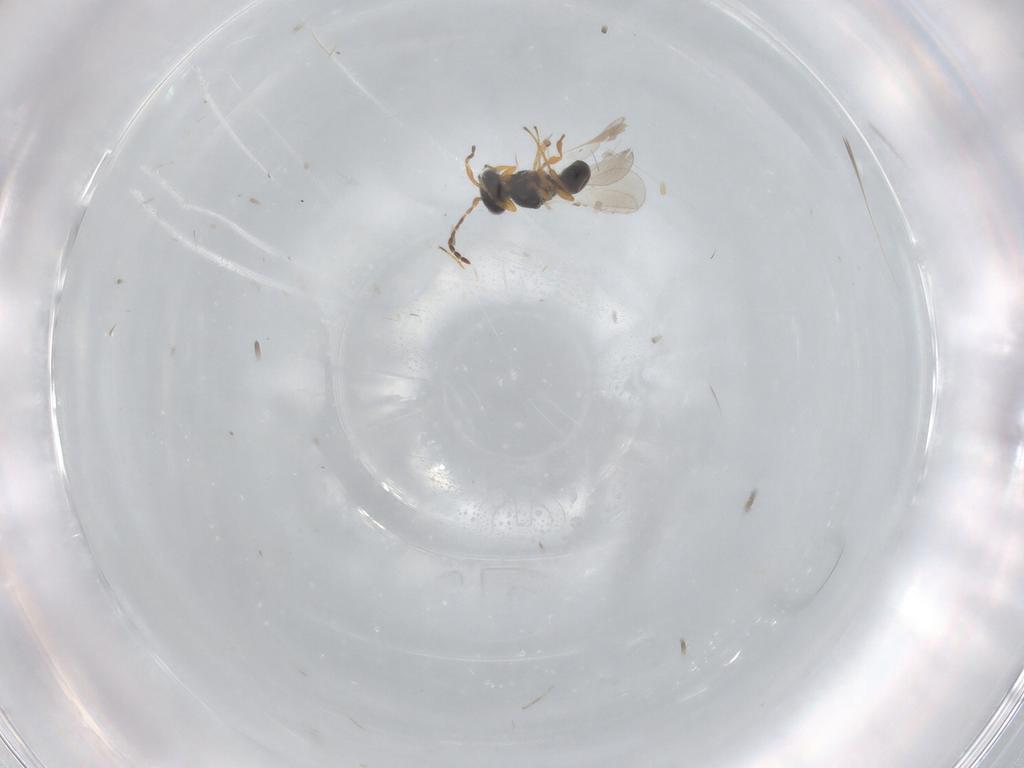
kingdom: Animalia
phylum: Arthropoda
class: Insecta
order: Hymenoptera
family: Platygastridae
